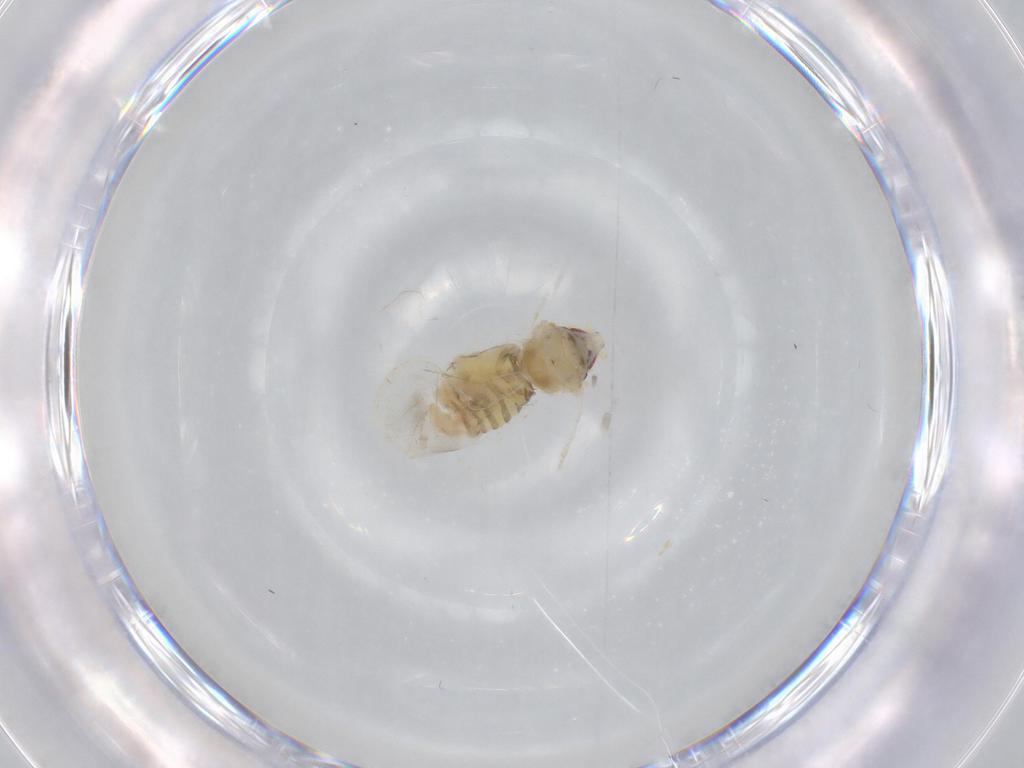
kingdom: Animalia
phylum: Arthropoda
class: Insecta
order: Hemiptera
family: Aleyrodidae
